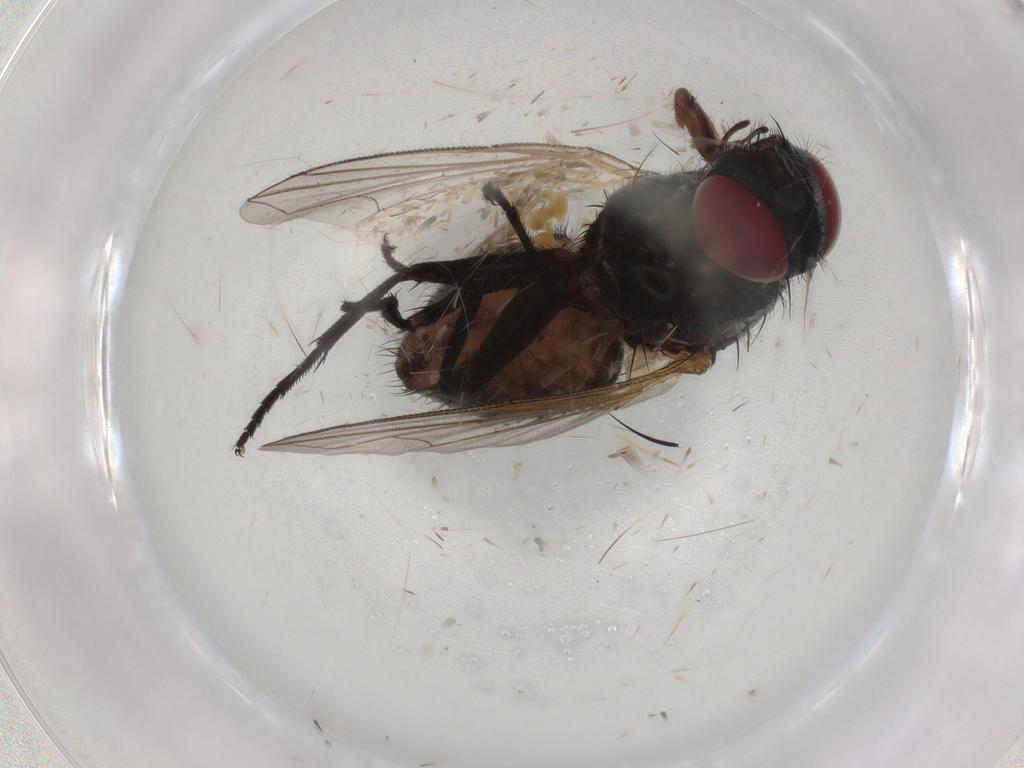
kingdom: Animalia
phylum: Arthropoda
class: Insecta
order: Diptera
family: Muscidae
